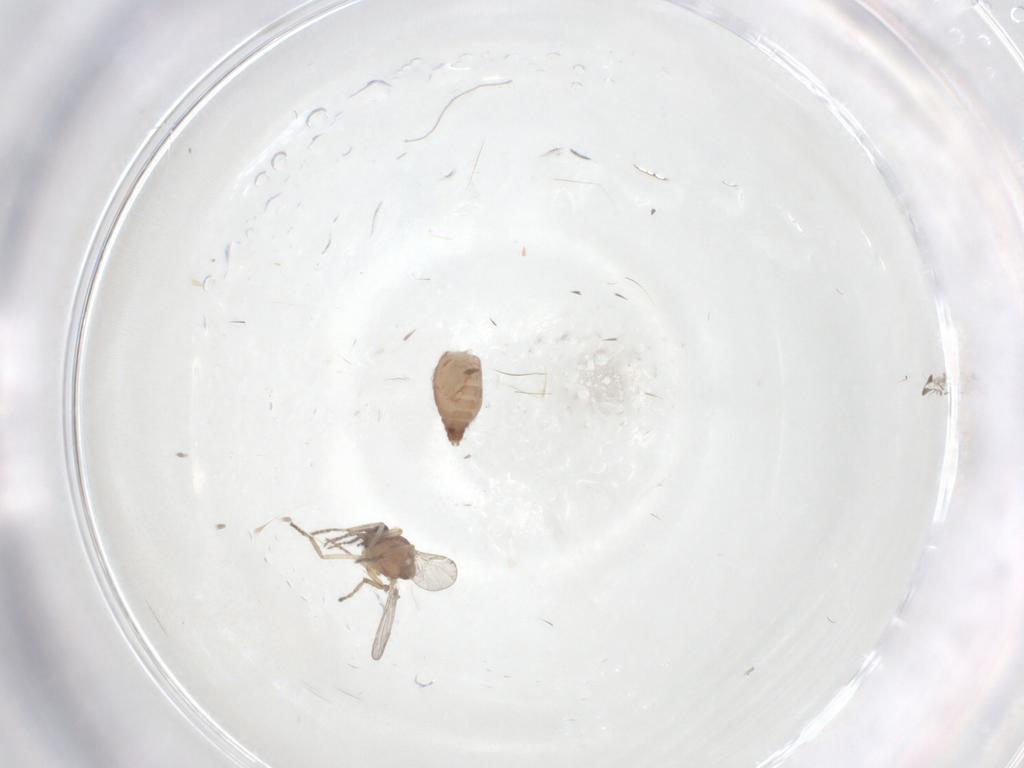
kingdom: Animalia
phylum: Arthropoda
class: Insecta
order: Diptera
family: Ceratopogonidae
